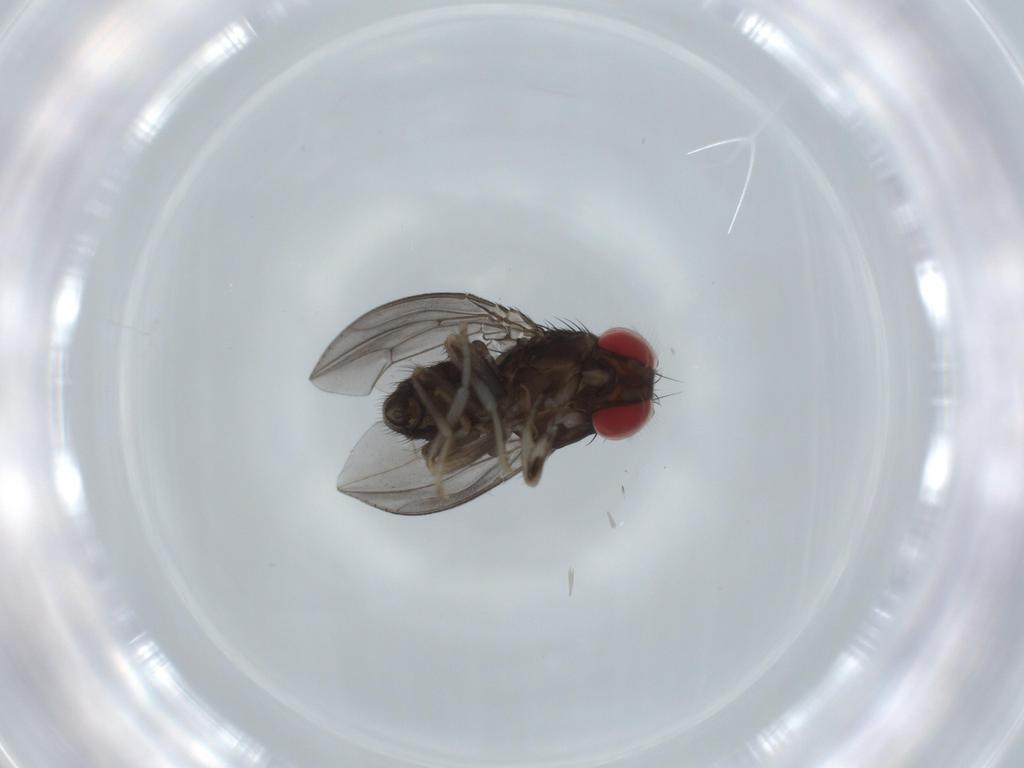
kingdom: Animalia
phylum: Arthropoda
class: Insecta
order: Diptera
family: Drosophilidae
